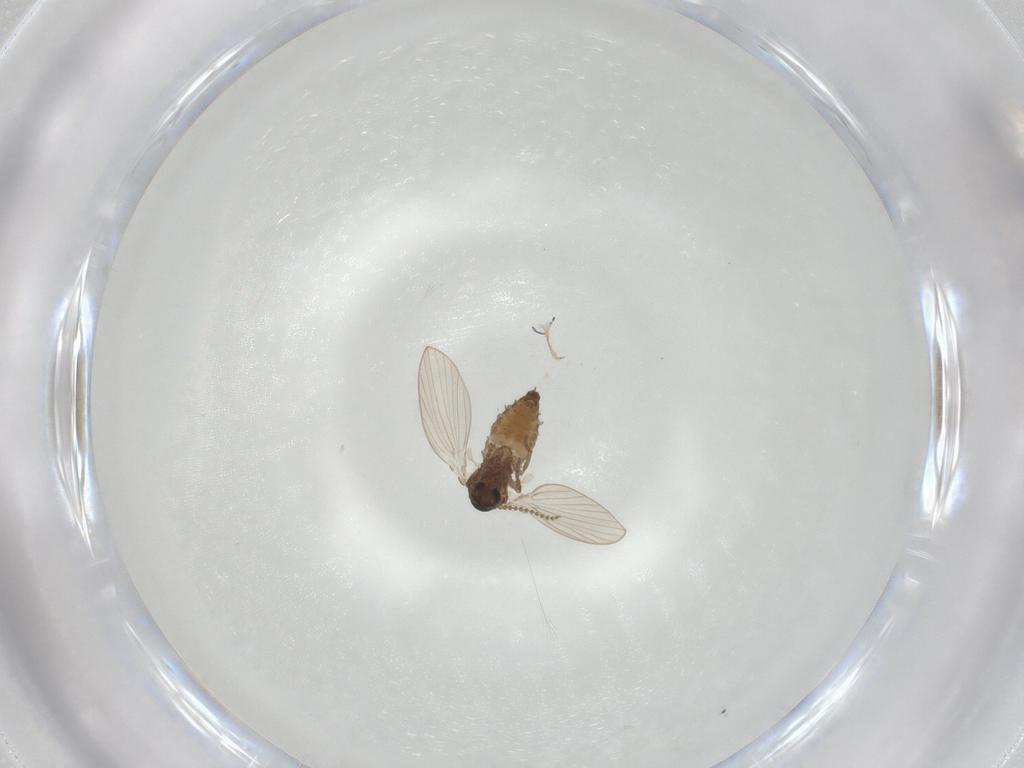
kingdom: Animalia
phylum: Arthropoda
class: Insecta
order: Diptera
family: Psychodidae
